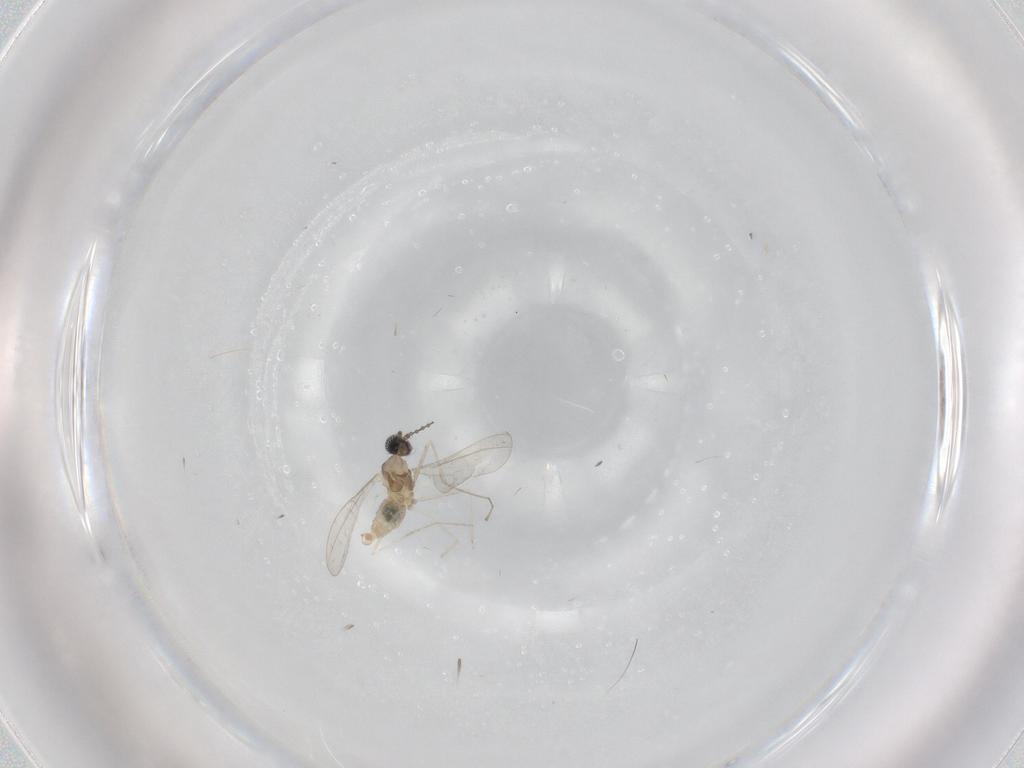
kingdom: Animalia
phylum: Arthropoda
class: Insecta
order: Diptera
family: Cecidomyiidae
